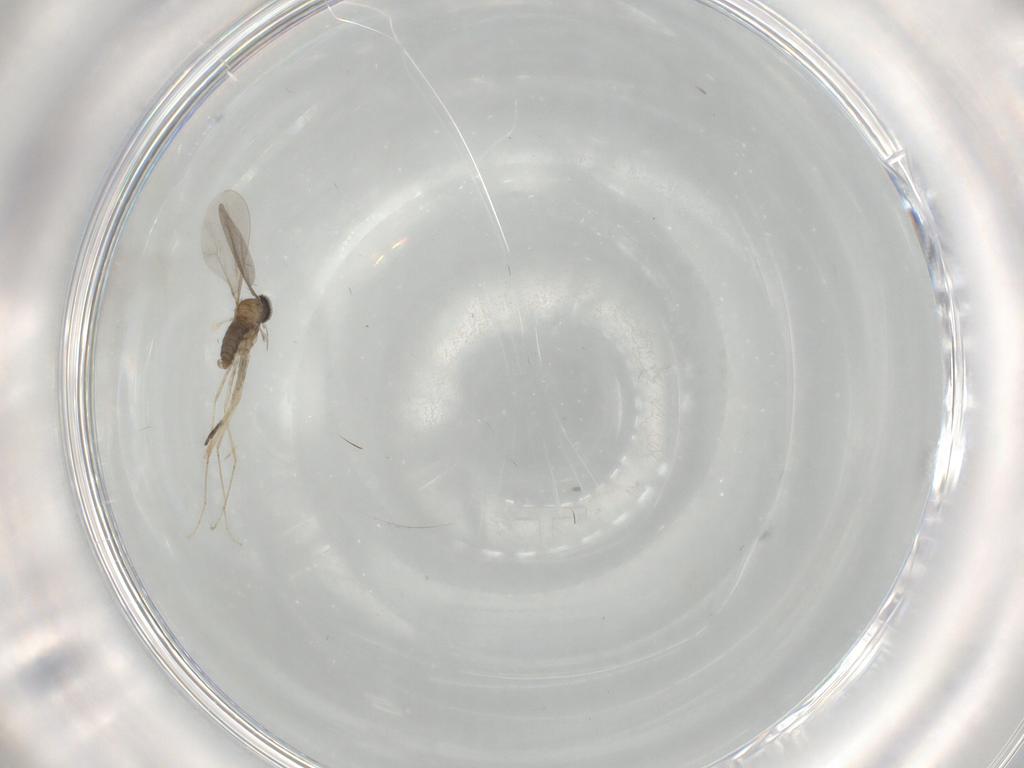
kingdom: Animalia
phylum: Arthropoda
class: Insecta
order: Diptera
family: Cecidomyiidae
